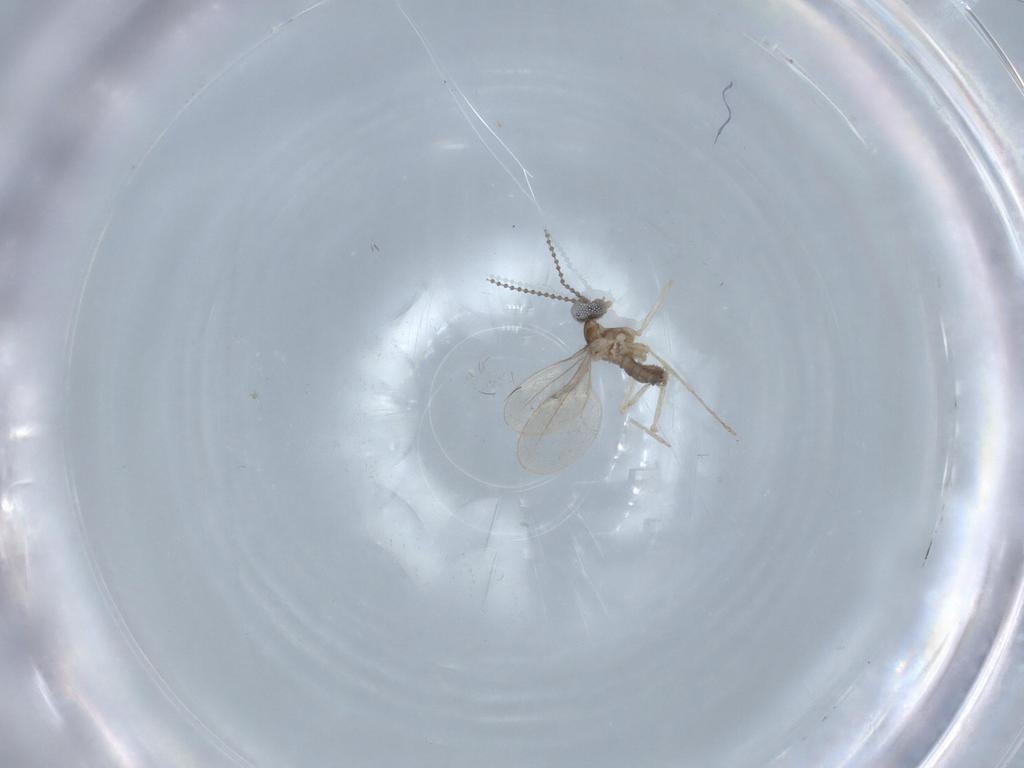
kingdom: Animalia
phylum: Arthropoda
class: Insecta
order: Diptera
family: Cecidomyiidae
